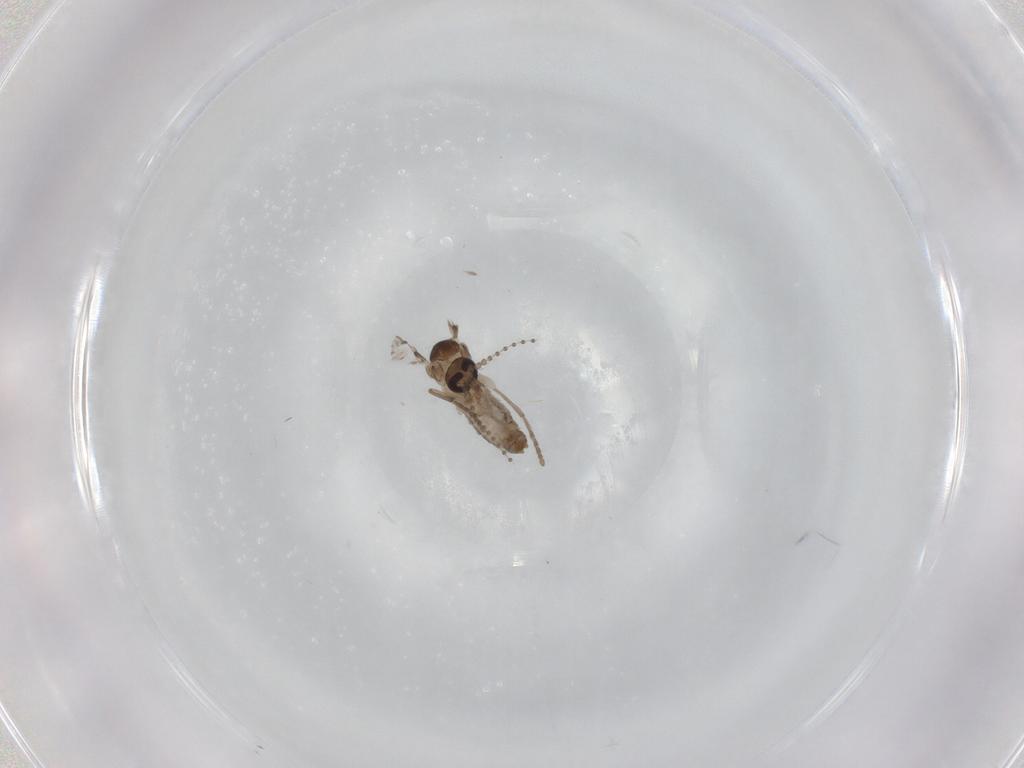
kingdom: Animalia
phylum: Arthropoda
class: Insecta
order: Diptera
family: Psychodidae
